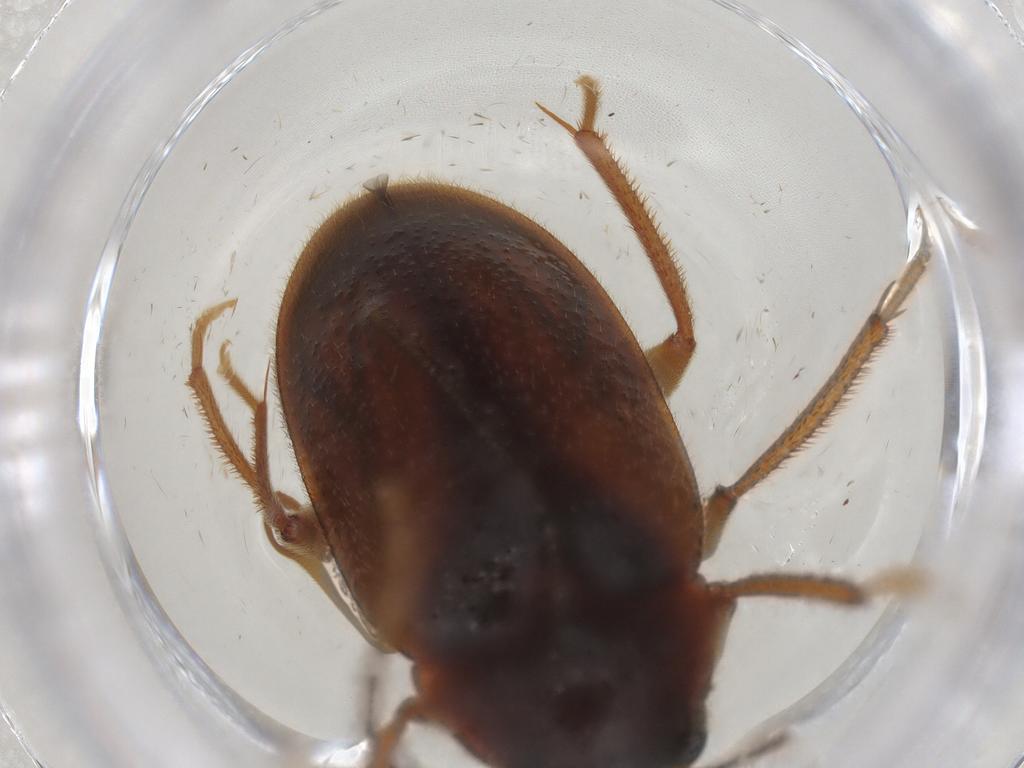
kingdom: Animalia
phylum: Arthropoda
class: Insecta
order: Coleoptera
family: Ptilodactylidae
